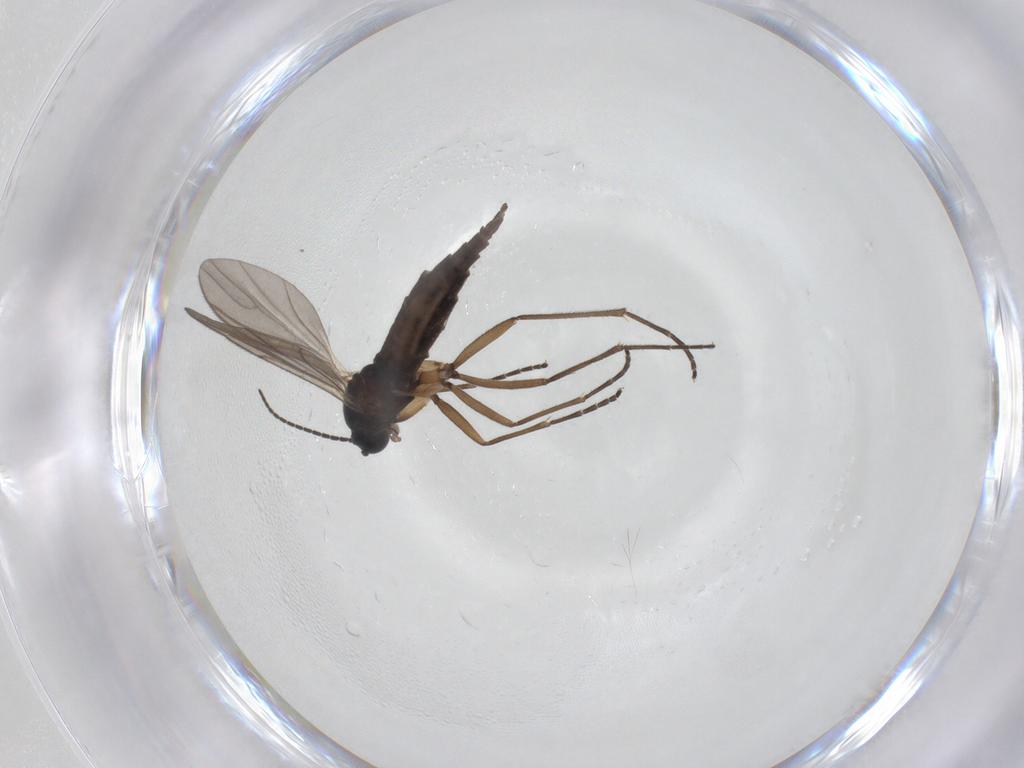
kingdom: Animalia
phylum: Arthropoda
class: Insecta
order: Diptera
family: Sciaridae
